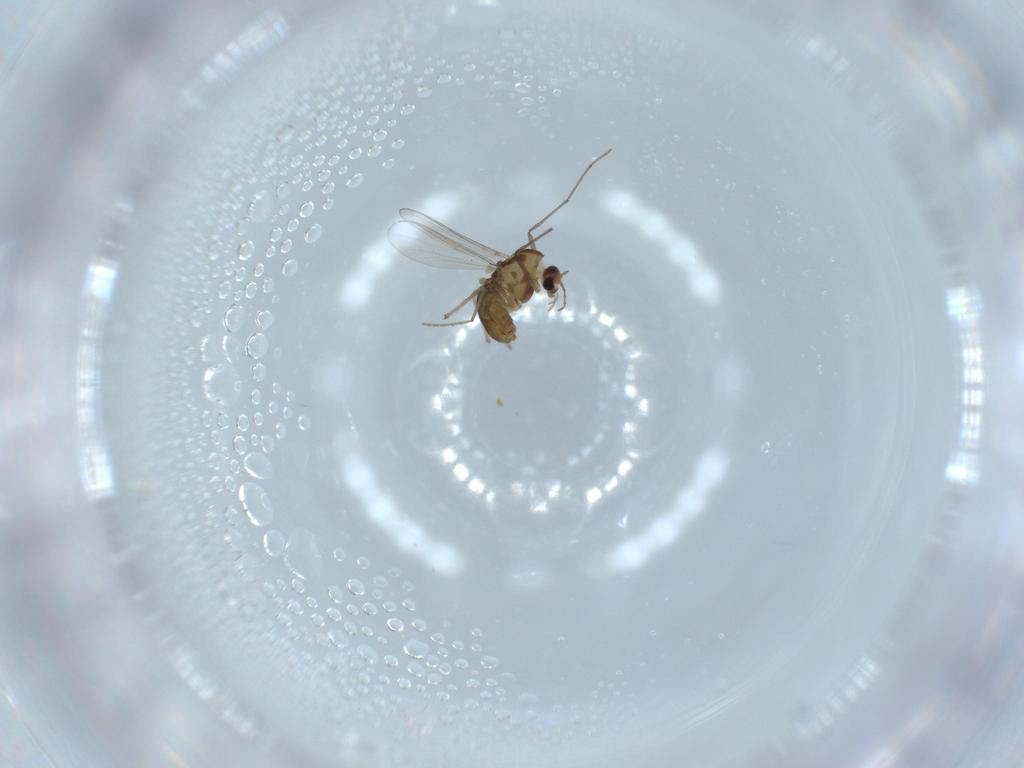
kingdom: Animalia
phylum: Arthropoda
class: Insecta
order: Diptera
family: Chironomidae
